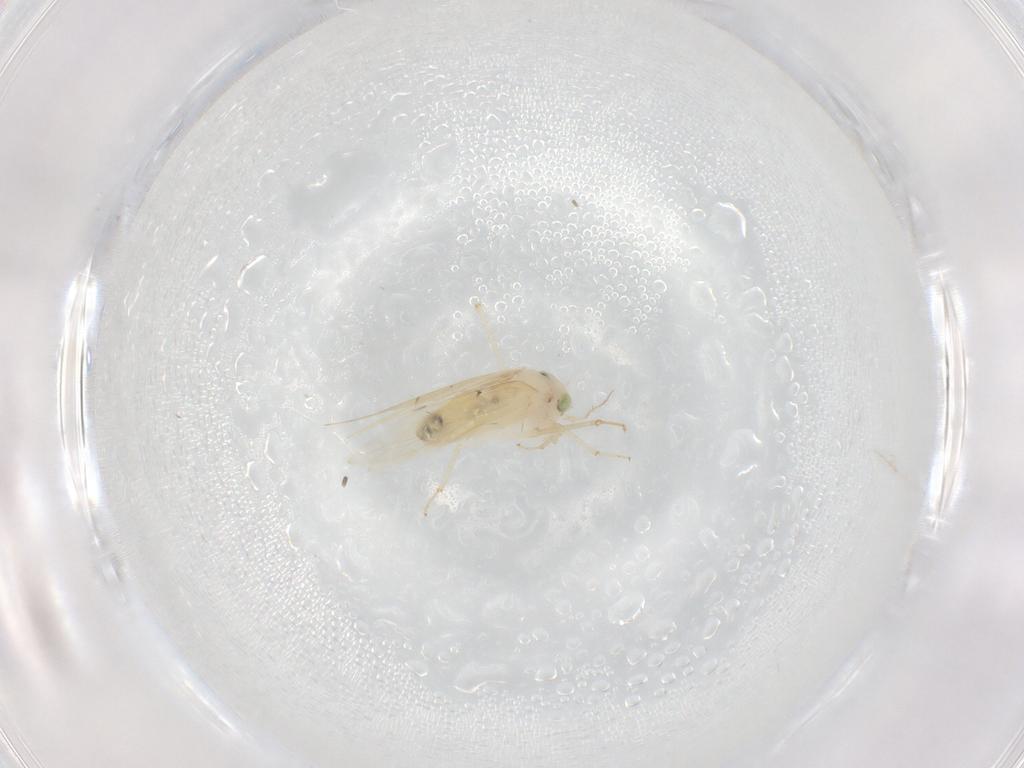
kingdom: Animalia
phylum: Arthropoda
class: Insecta
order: Psocodea
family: Lepidopsocidae
